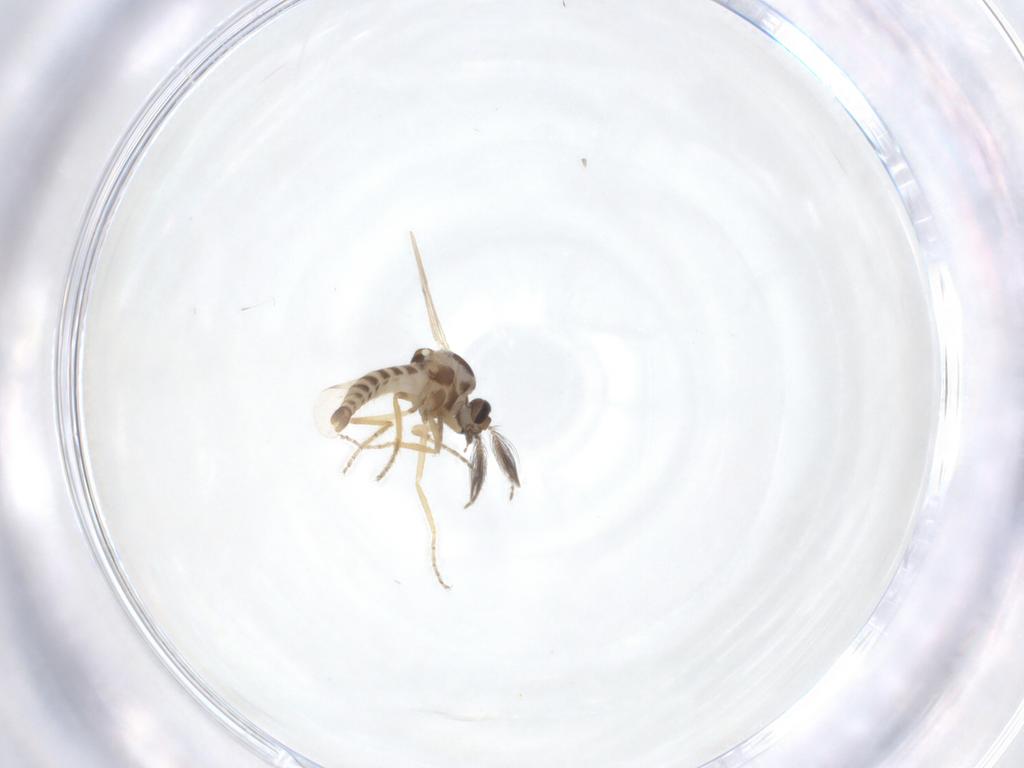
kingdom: Animalia
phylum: Arthropoda
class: Insecta
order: Diptera
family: Ceratopogonidae
